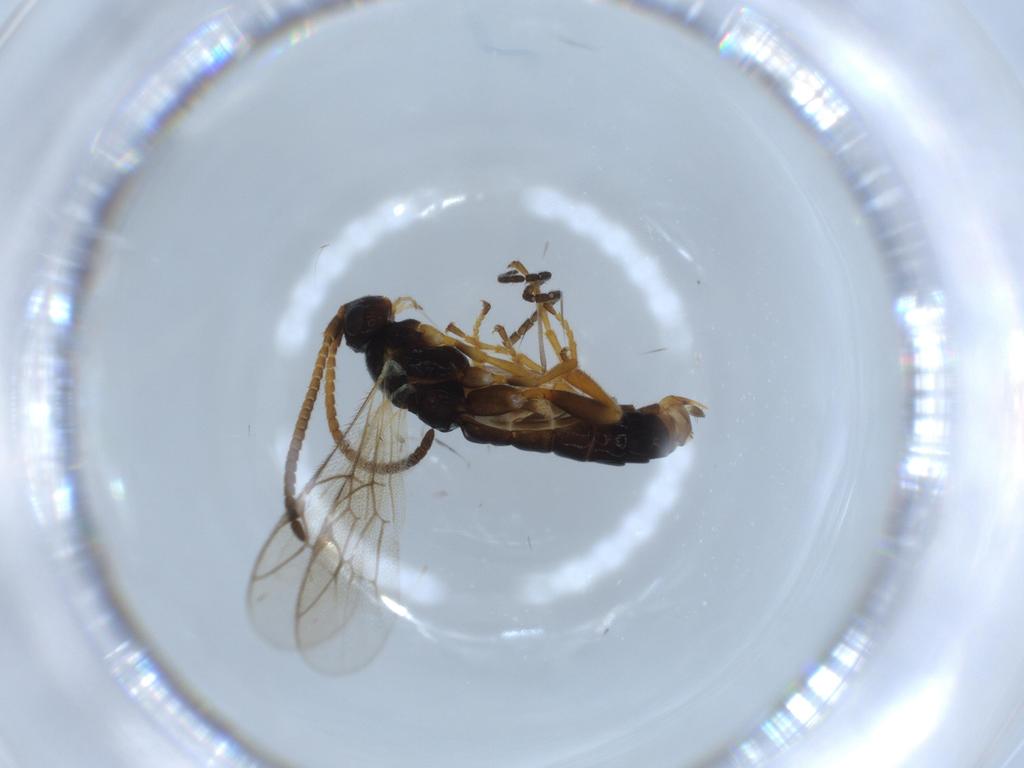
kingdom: Animalia
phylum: Arthropoda
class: Insecta
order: Hymenoptera
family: Ichneumonidae
